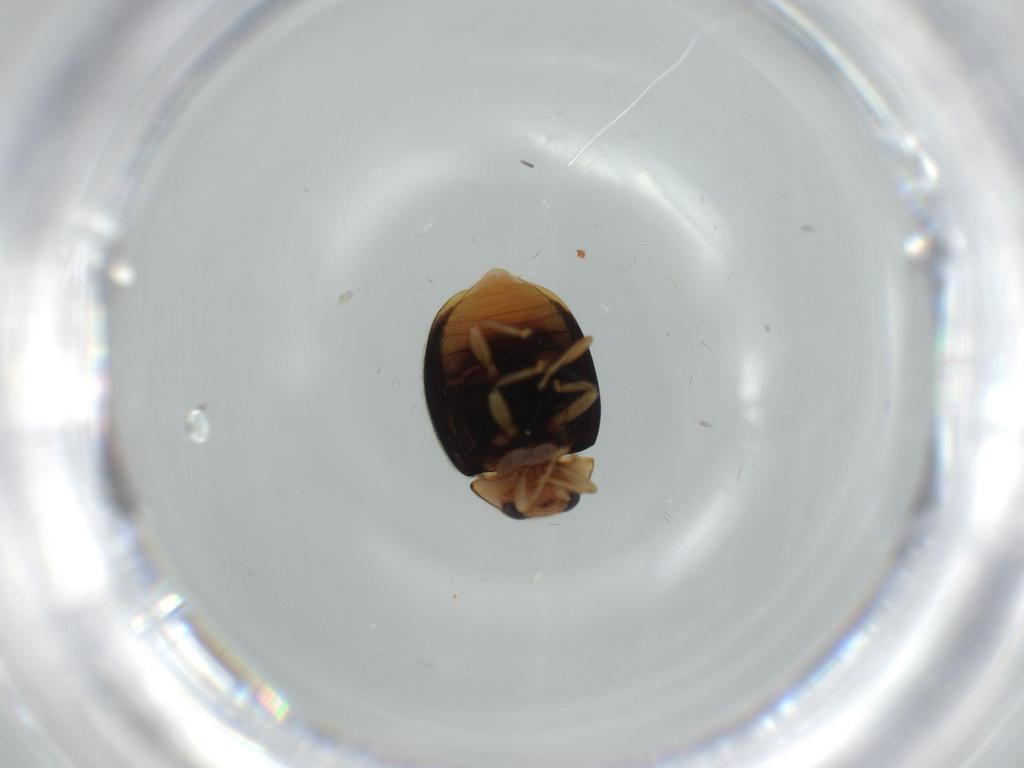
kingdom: Animalia
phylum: Arthropoda
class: Insecta
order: Coleoptera
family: Coccinellidae
